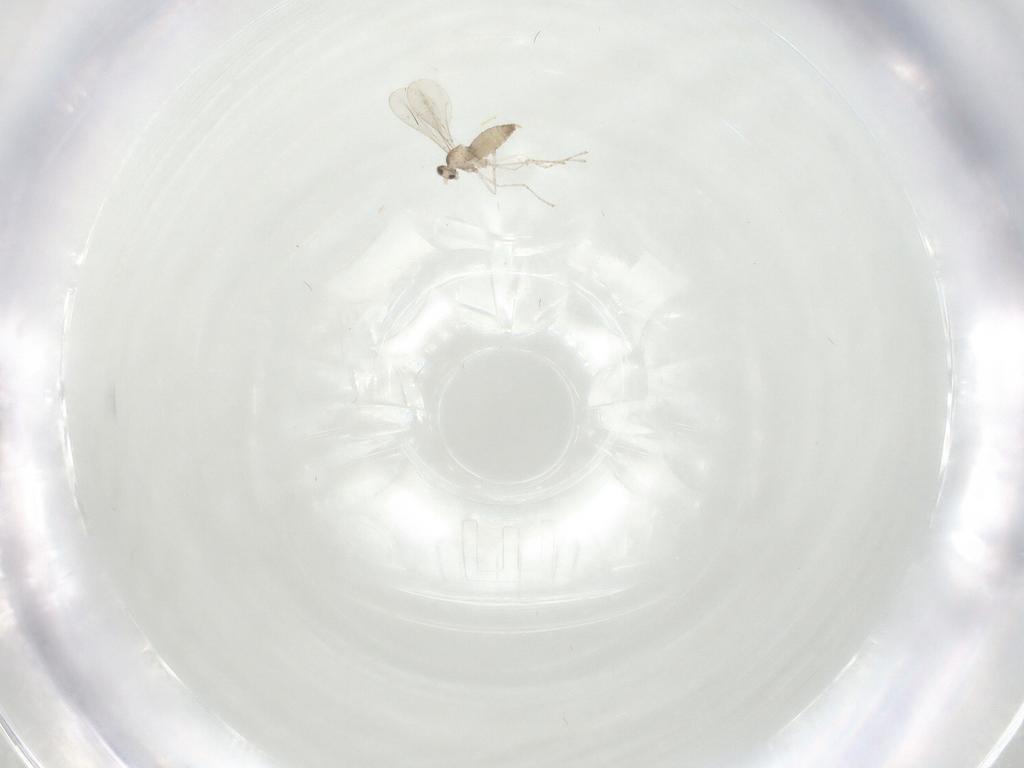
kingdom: Animalia
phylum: Arthropoda
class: Insecta
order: Diptera
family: Cecidomyiidae
